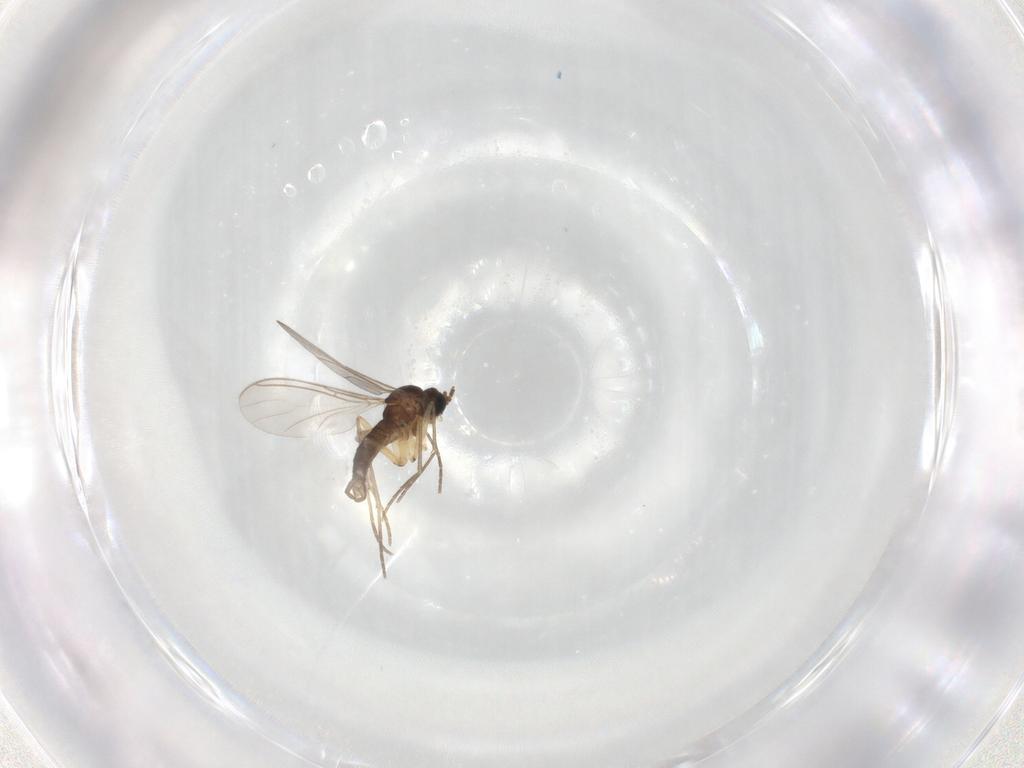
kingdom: Animalia
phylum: Arthropoda
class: Insecta
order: Diptera
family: Sciaridae
